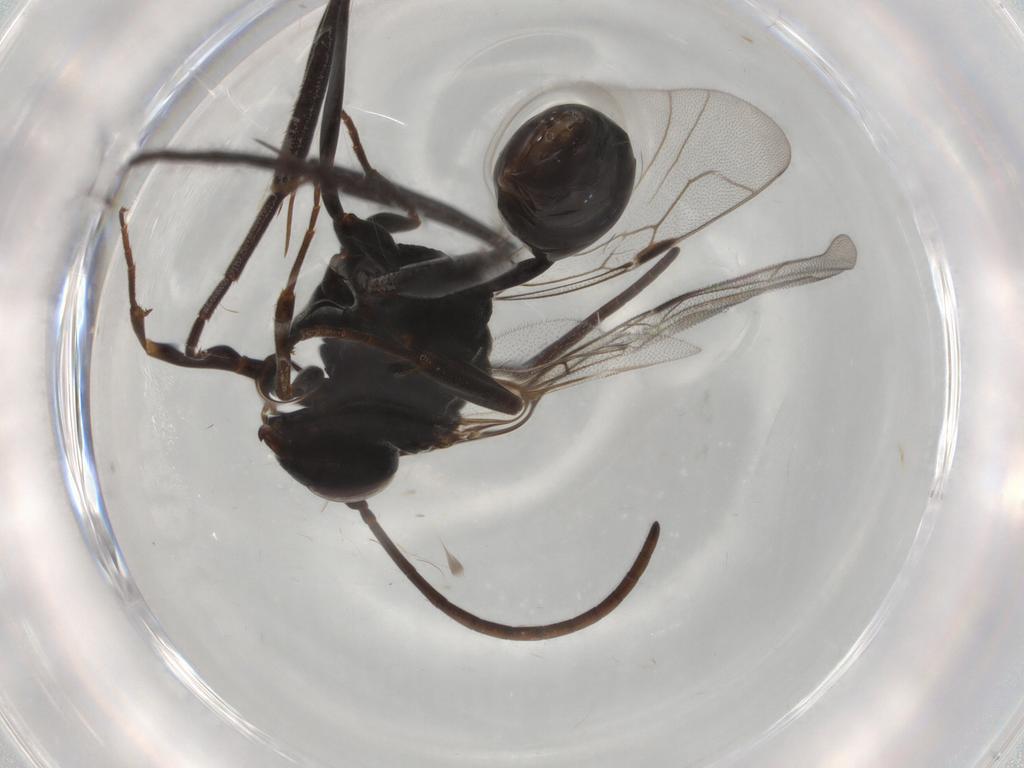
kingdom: Animalia
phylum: Arthropoda
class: Insecta
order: Hymenoptera
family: Evaniidae
